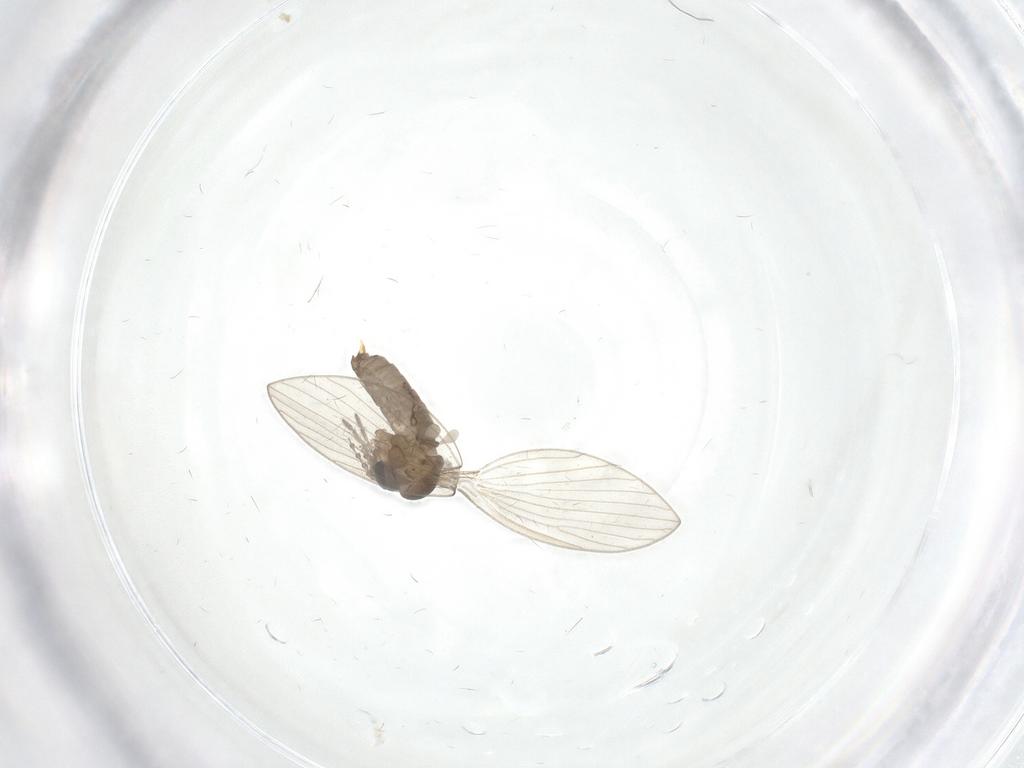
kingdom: Animalia
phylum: Arthropoda
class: Insecta
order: Diptera
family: Psychodidae
